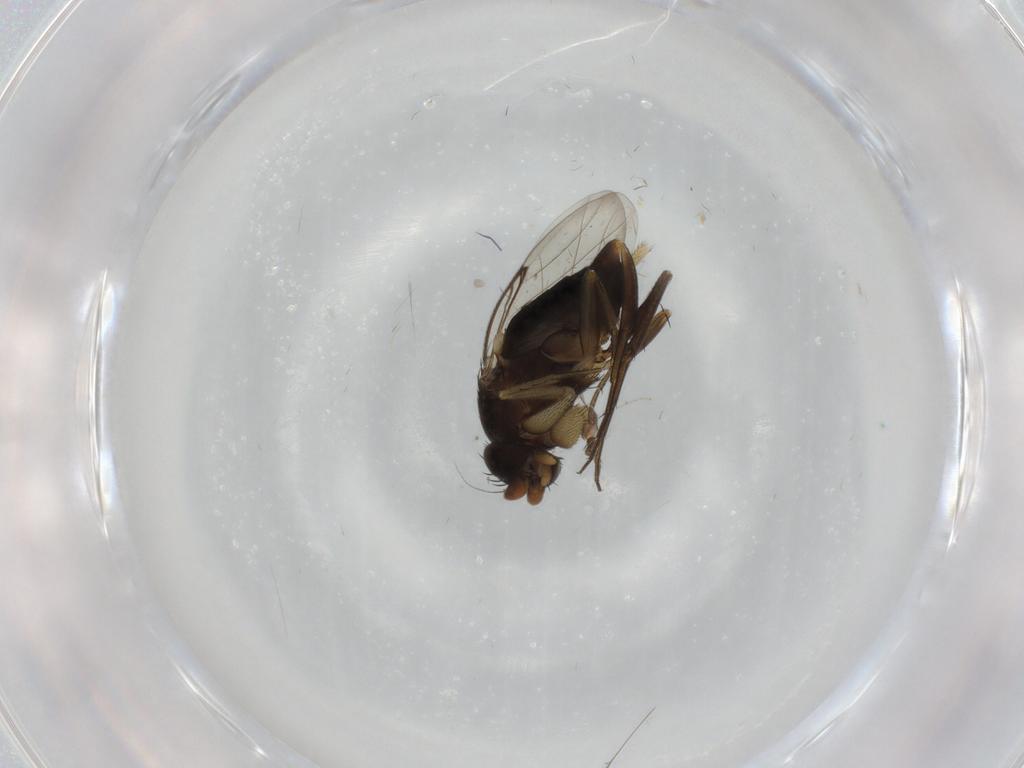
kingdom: Animalia
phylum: Arthropoda
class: Insecta
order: Diptera
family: Phoridae
